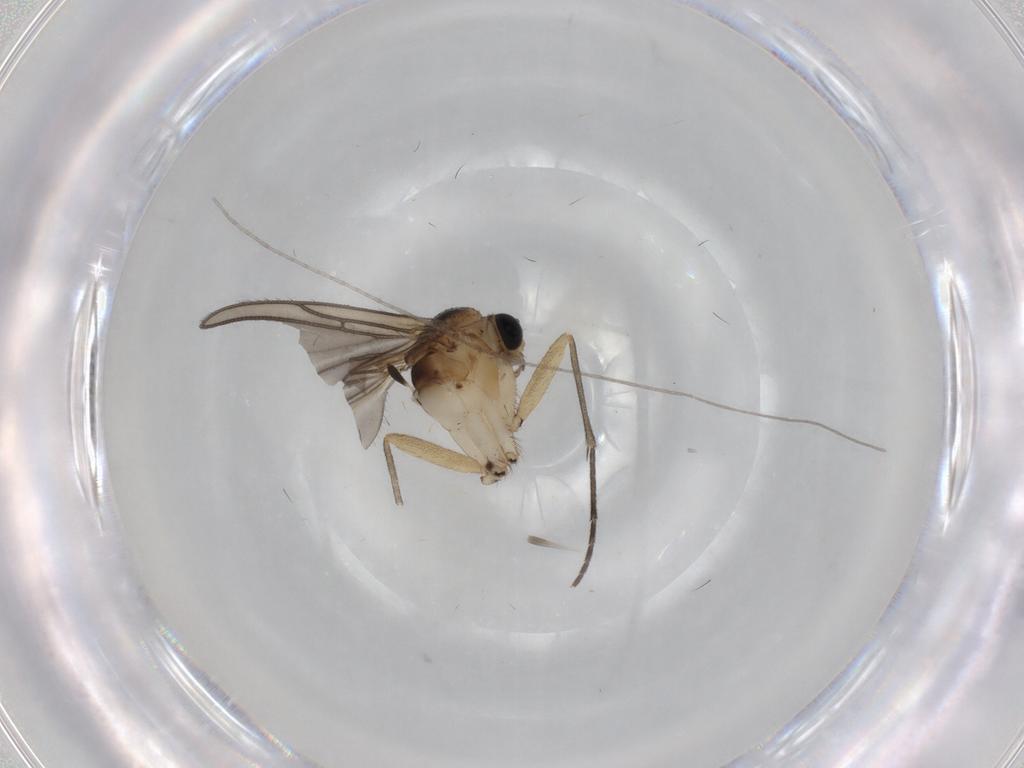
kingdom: Animalia
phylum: Arthropoda
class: Insecta
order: Diptera
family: Sciaridae
